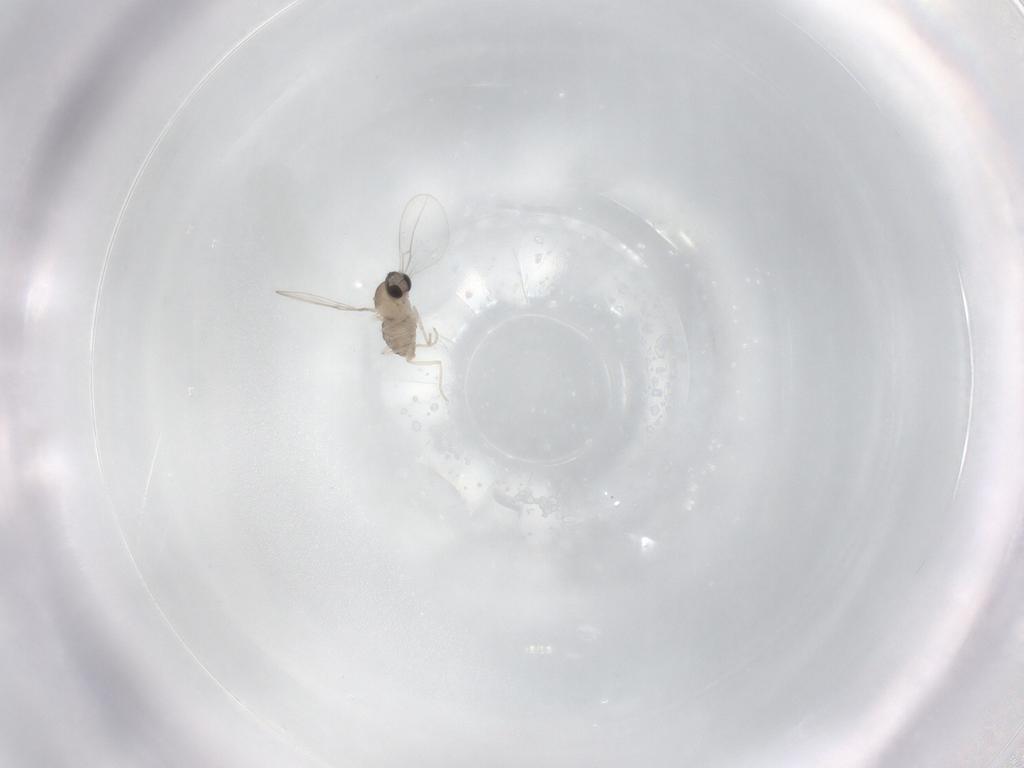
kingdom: Animalia
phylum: Arthropoda
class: Insecta
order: Diptera
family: Cecidomyiidae
